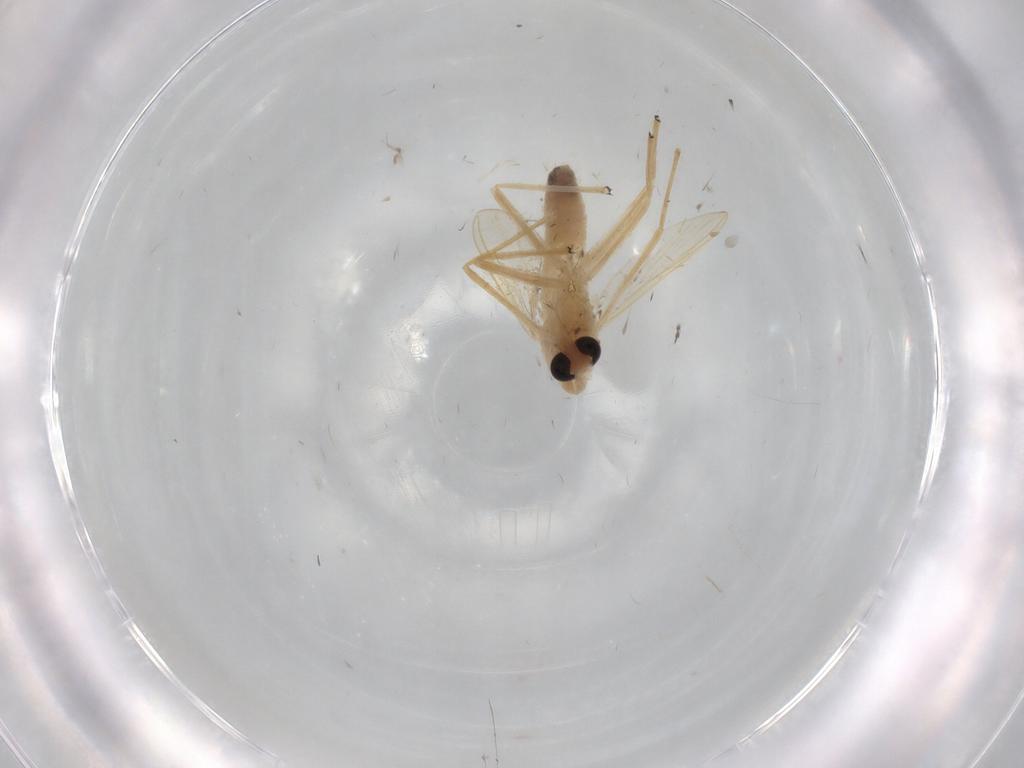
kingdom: Animalia
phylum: Arthropoda
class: Insecta
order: Diptera
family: Chironomidae
